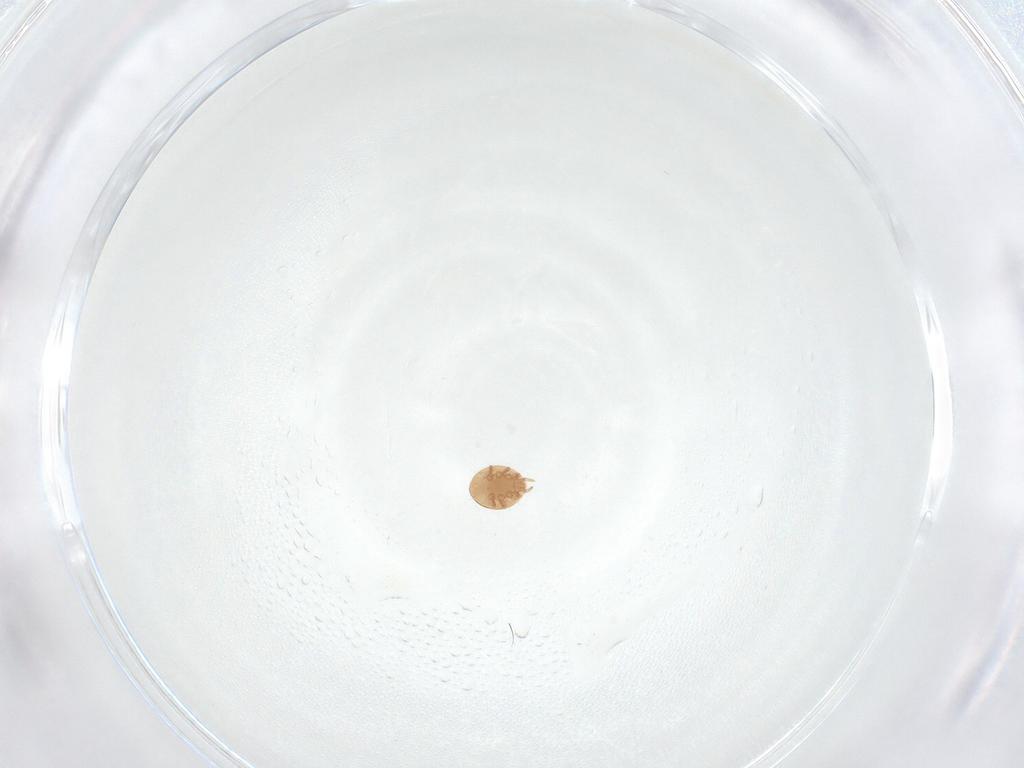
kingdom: Animalia
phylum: Arthropoda
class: Arachnida
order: Mesostigmata
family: Trematuridae
